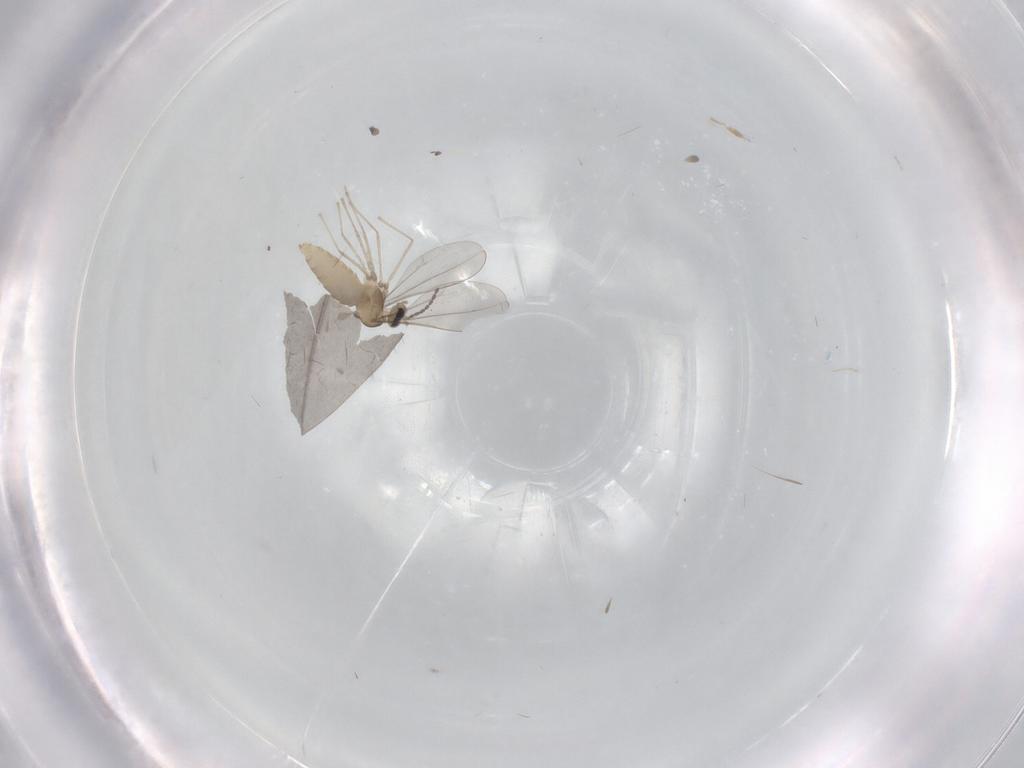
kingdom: Animalia
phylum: Arthropoda
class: Insecta
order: Diptera
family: Cecidomyiidae
